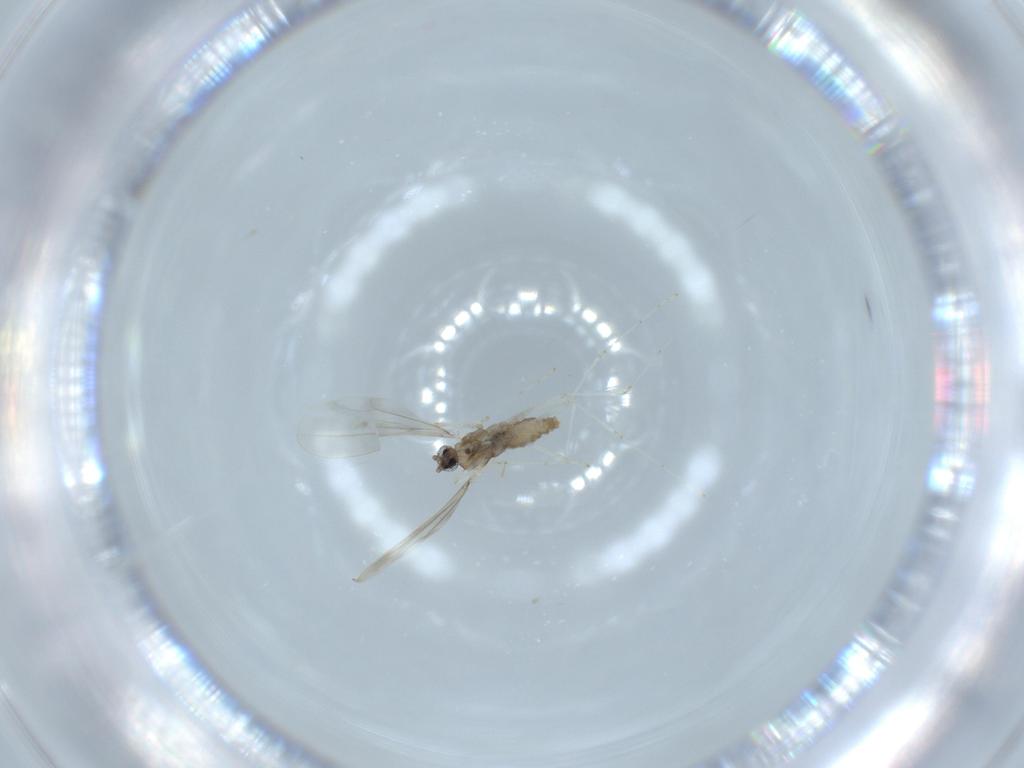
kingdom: Animalia
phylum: Arthropoda
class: Insecta
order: Diptera
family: Cecidomyiidae
